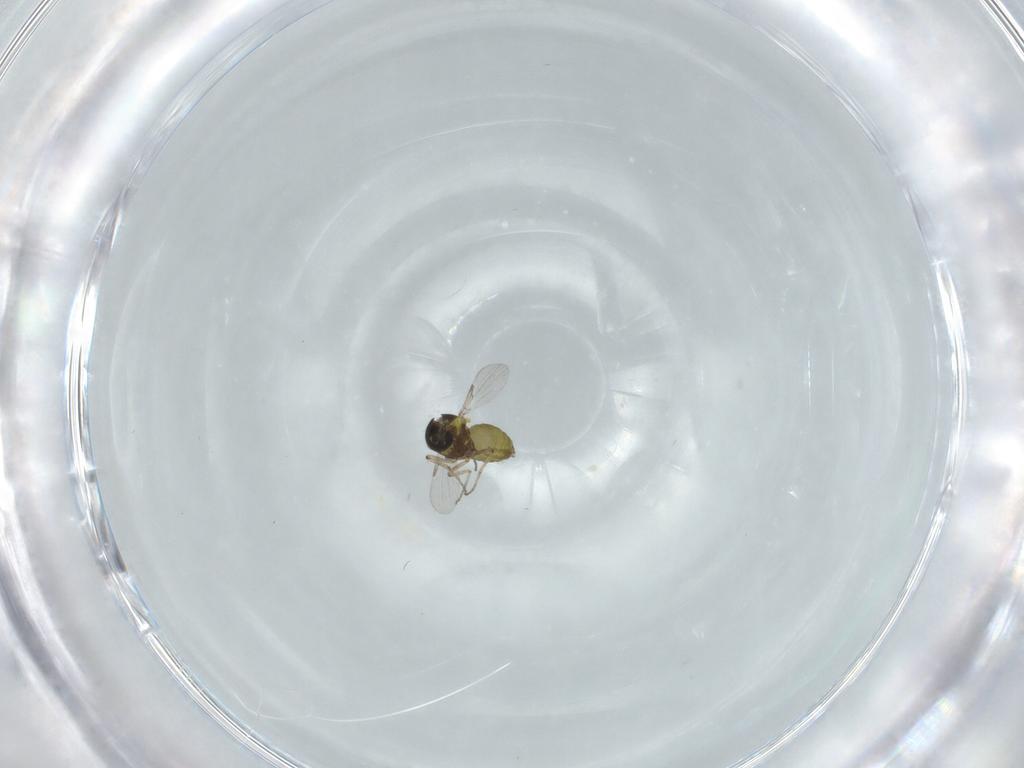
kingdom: Animalia
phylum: Arthropoda
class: Insecta
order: Diptera
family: Ceratopogonidae
